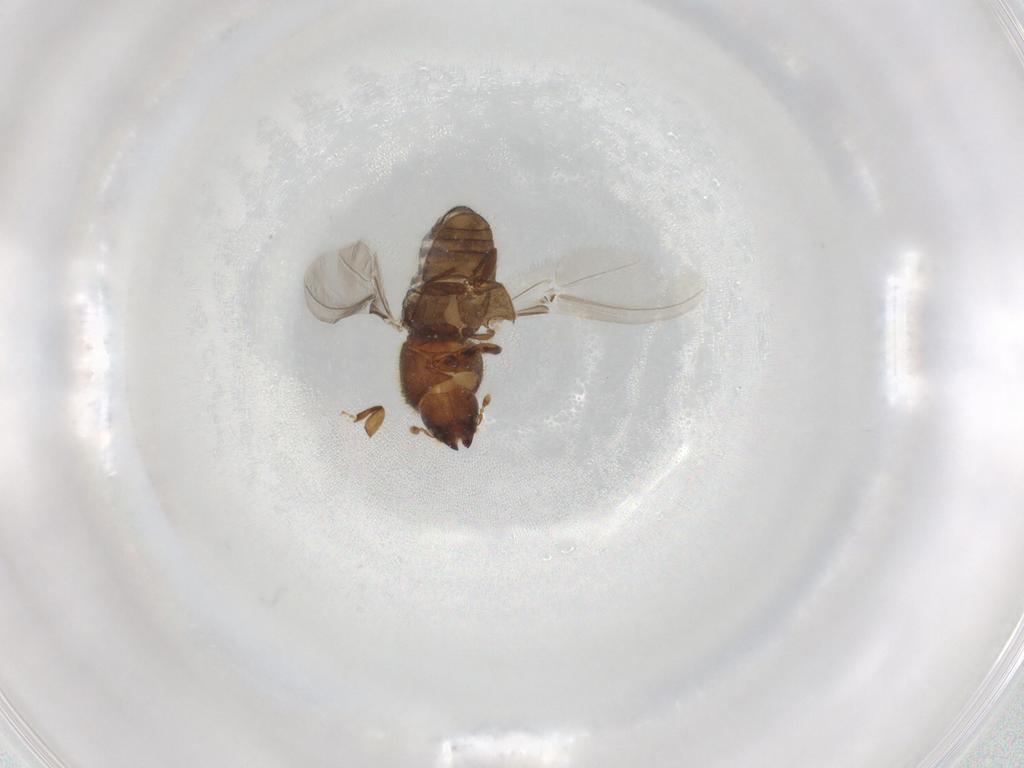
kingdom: Animalia
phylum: Arthropoda
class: Insecta
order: Coleoptera
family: Curculionidae
